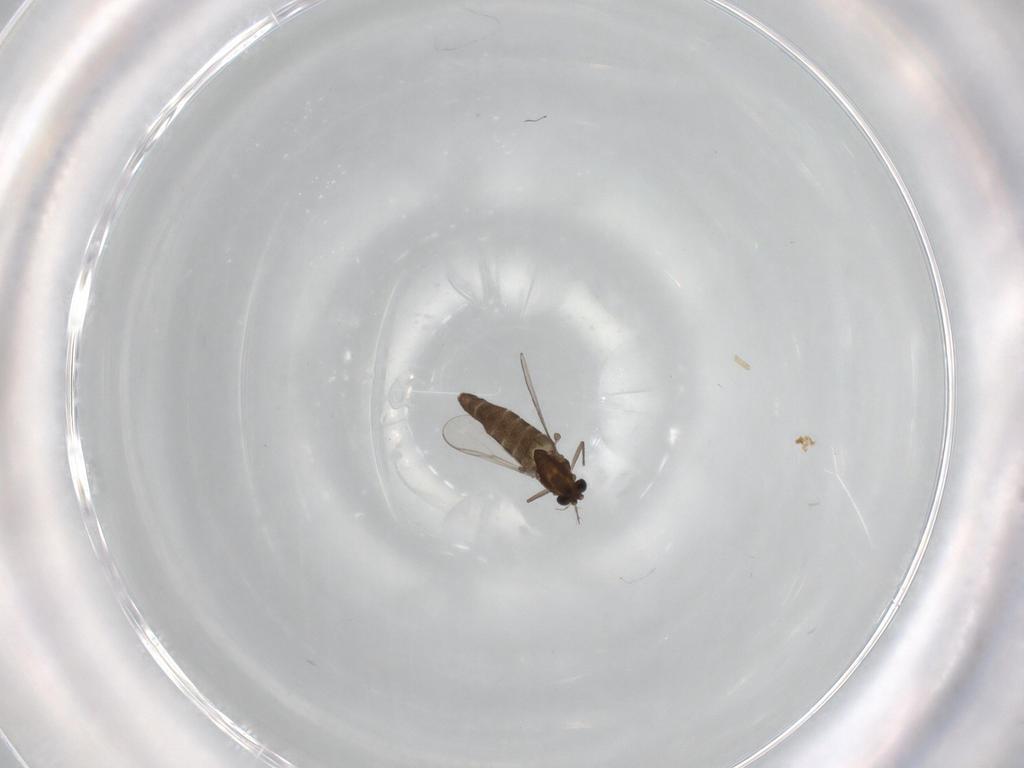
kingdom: Animalia
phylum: Arthropoda
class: Insecta
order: Diptera
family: Chironomidae
